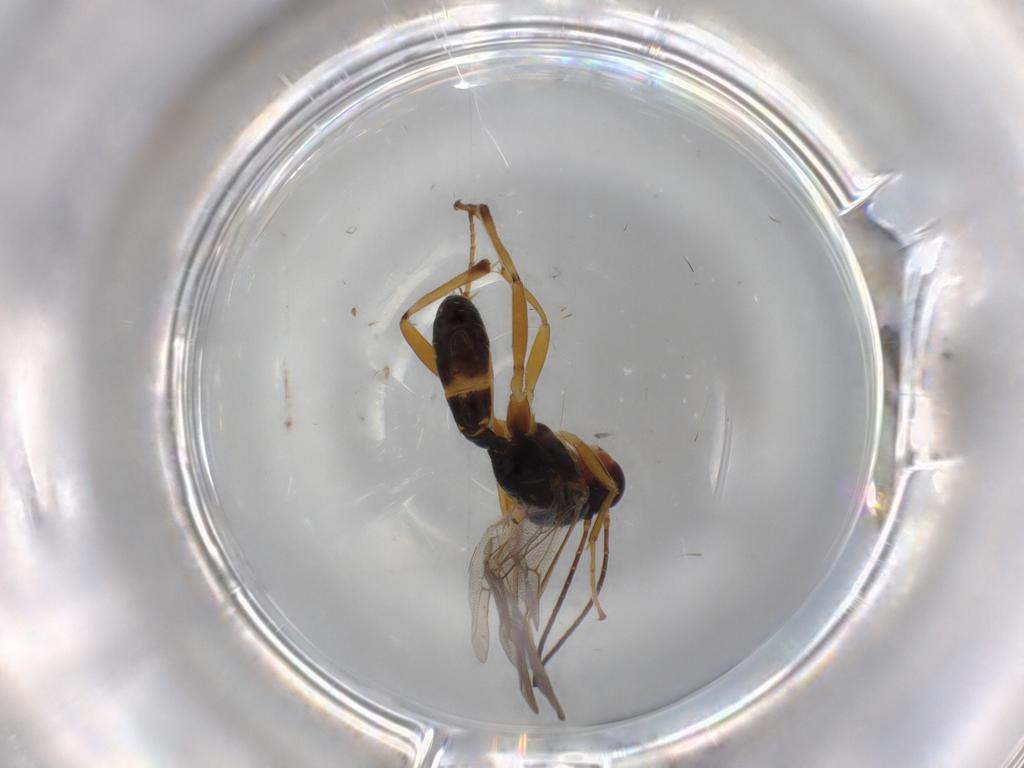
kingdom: Animalia
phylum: Arthropoda
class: Insecta
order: Hymenoptera
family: Ichneumonidae
